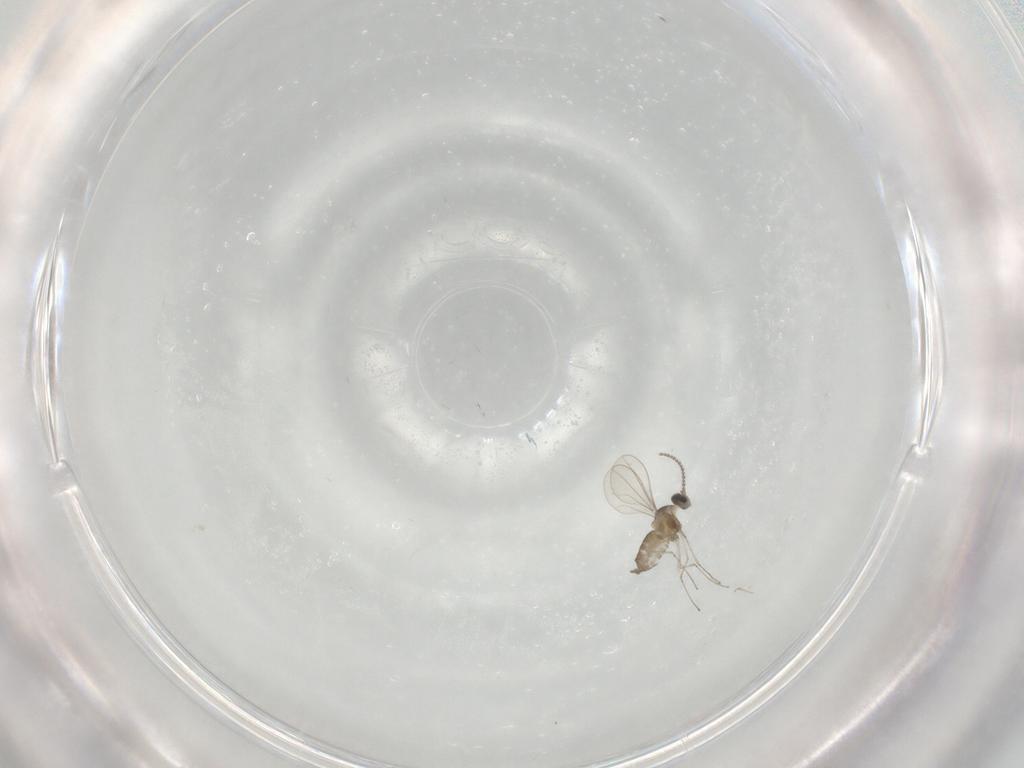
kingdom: Animalia
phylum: Arthropoda
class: Insecta
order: Diptera
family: Cecidomyiidae
